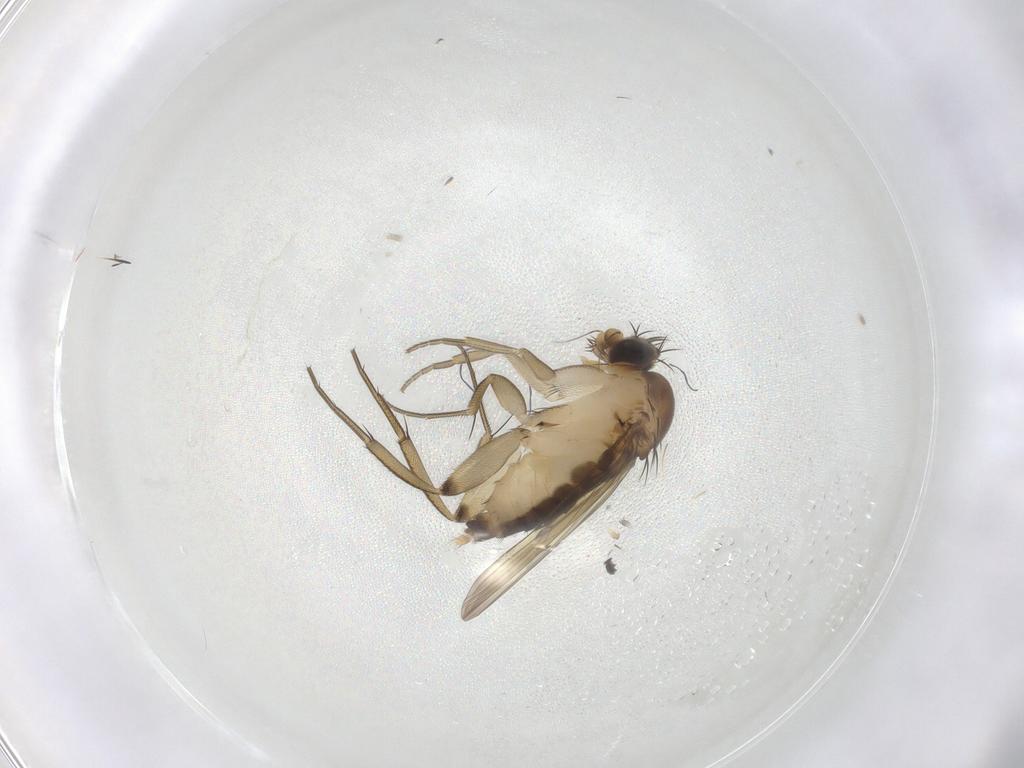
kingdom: Animalia
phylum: Arthropoda
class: Insecta
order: Diptera
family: Phoridae
